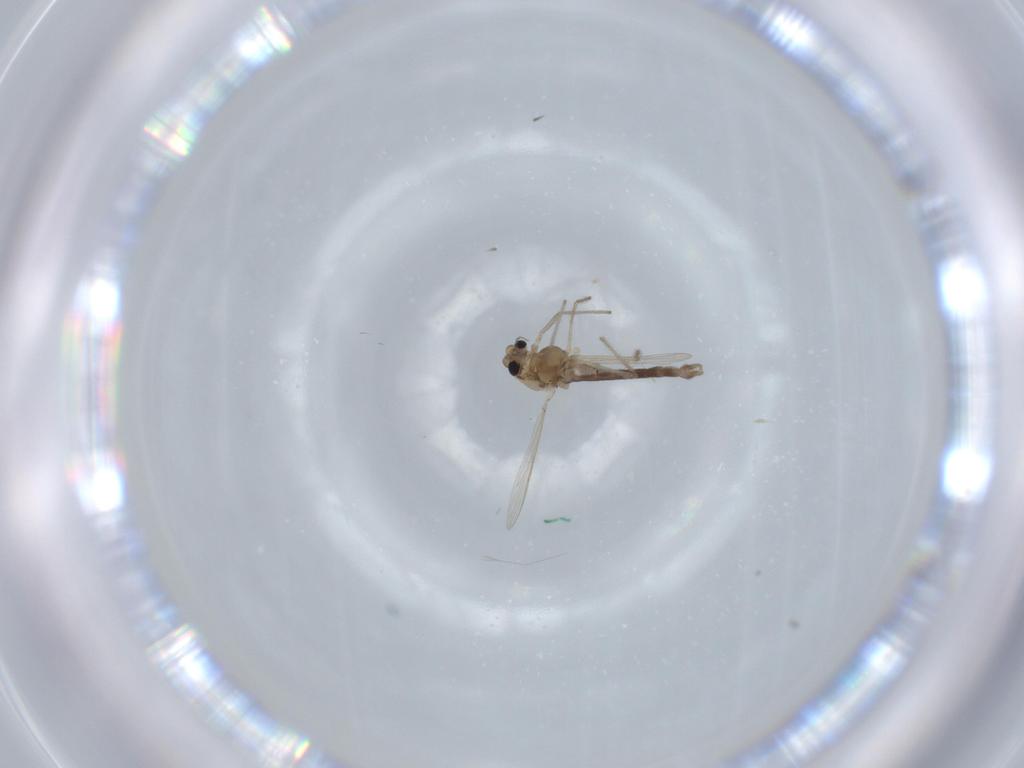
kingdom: Animalia
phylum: Arthropoda
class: Insecta
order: Diptera
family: Chironomidae
